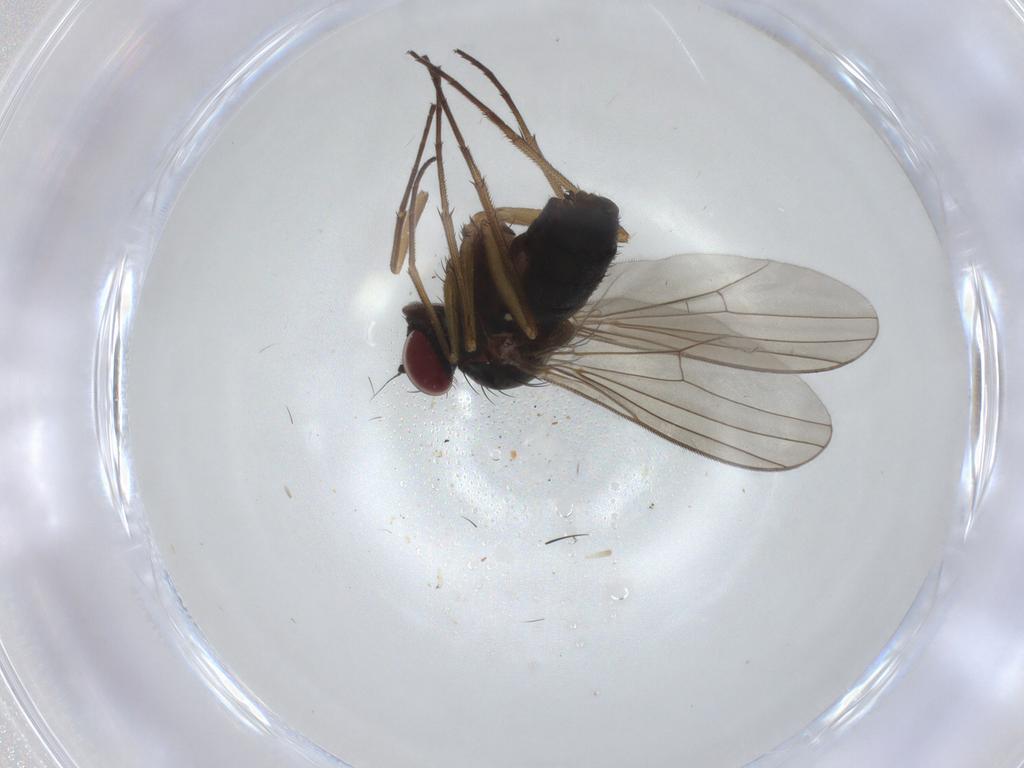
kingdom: Animalia
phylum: Arthropoda
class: Insecta
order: Diptera
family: Dolichopodidae
